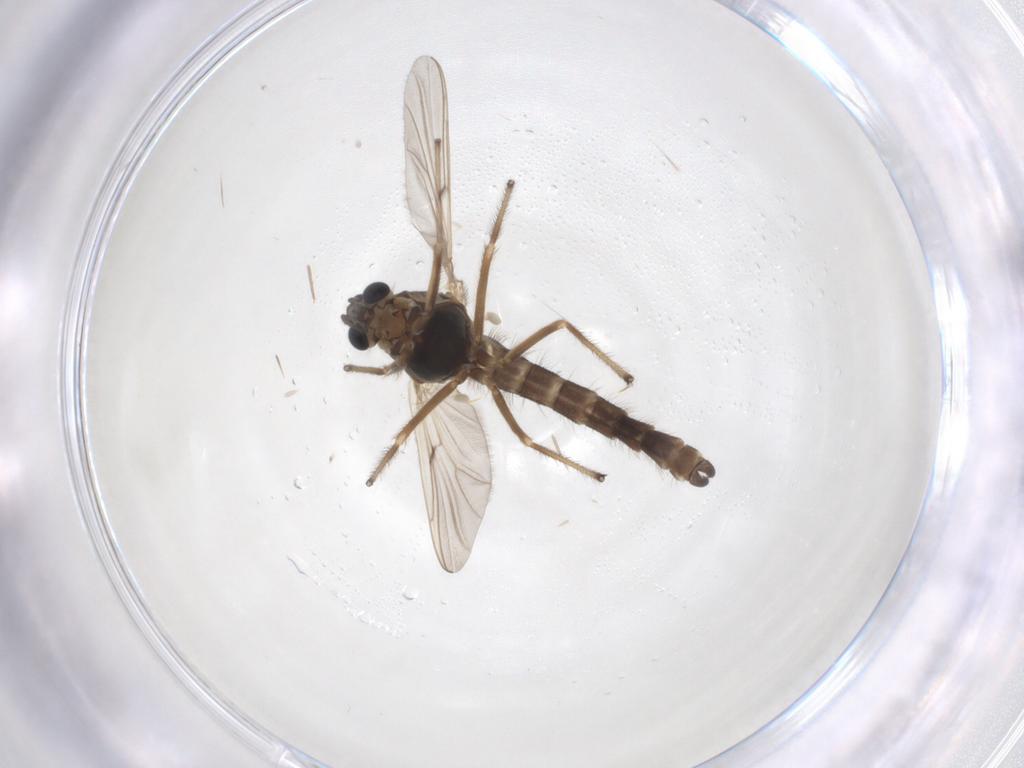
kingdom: Animalia
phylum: Arthropoda
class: Insecta
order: Diptera
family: Chironomidae
